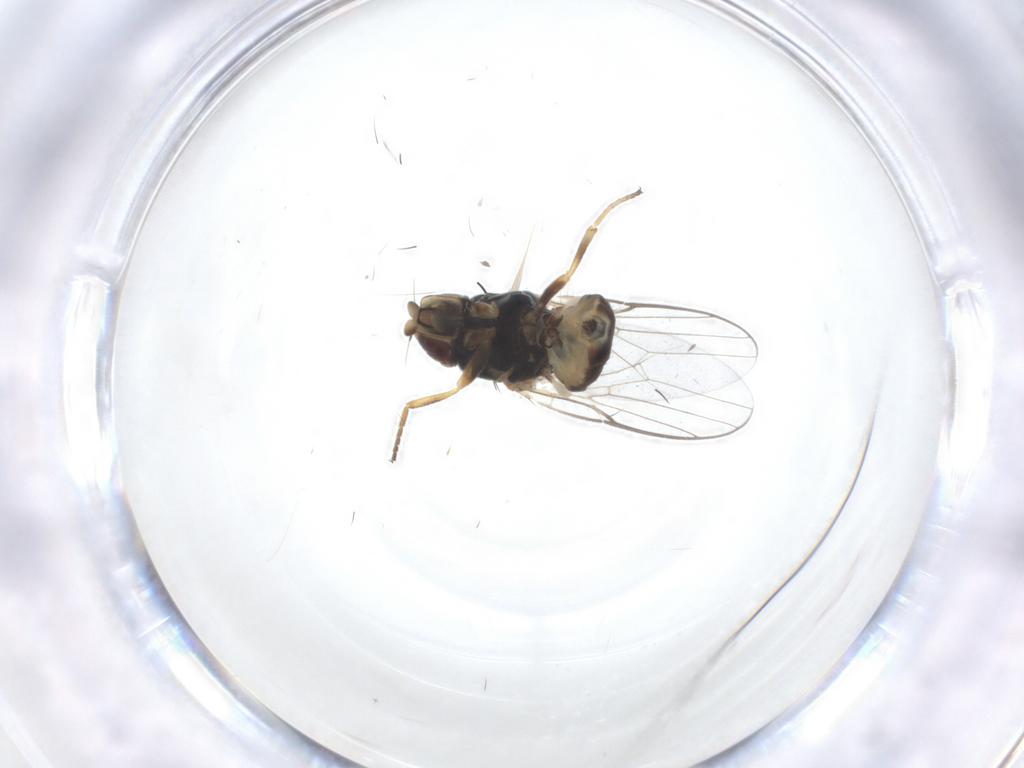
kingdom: Animalia
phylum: Arthropoda
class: Insecta
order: Diptera
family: Chloropidae
